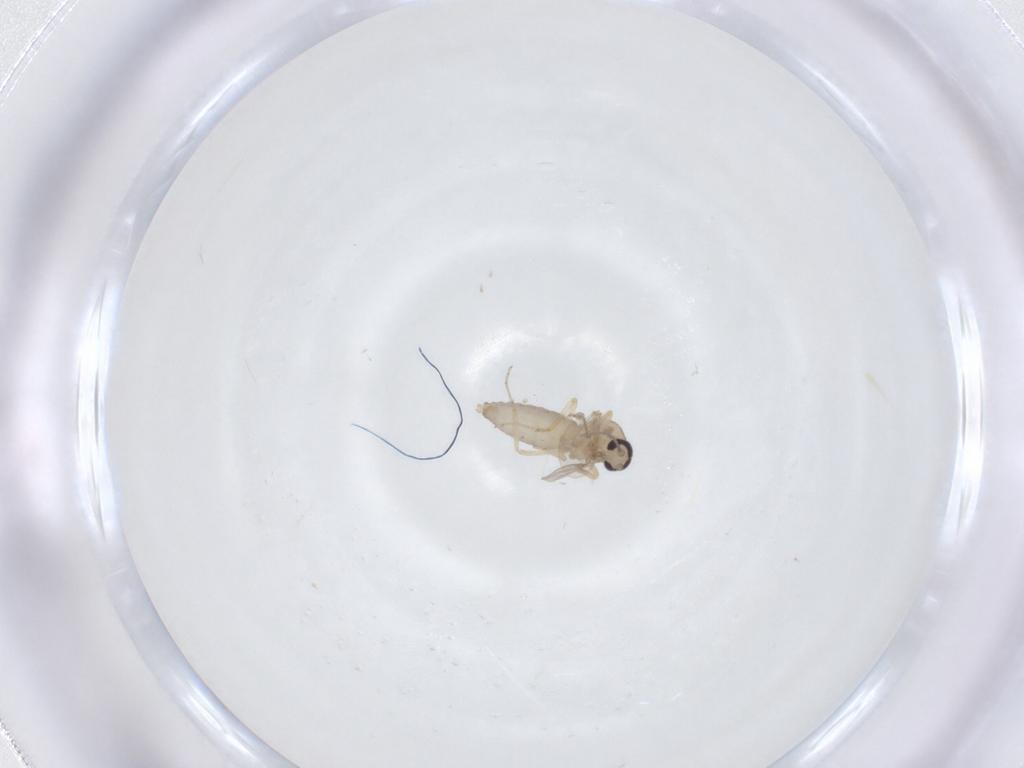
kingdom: Animalia
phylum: Arthropoda
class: Insecta
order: Diptera
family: Ceratopogonidae
